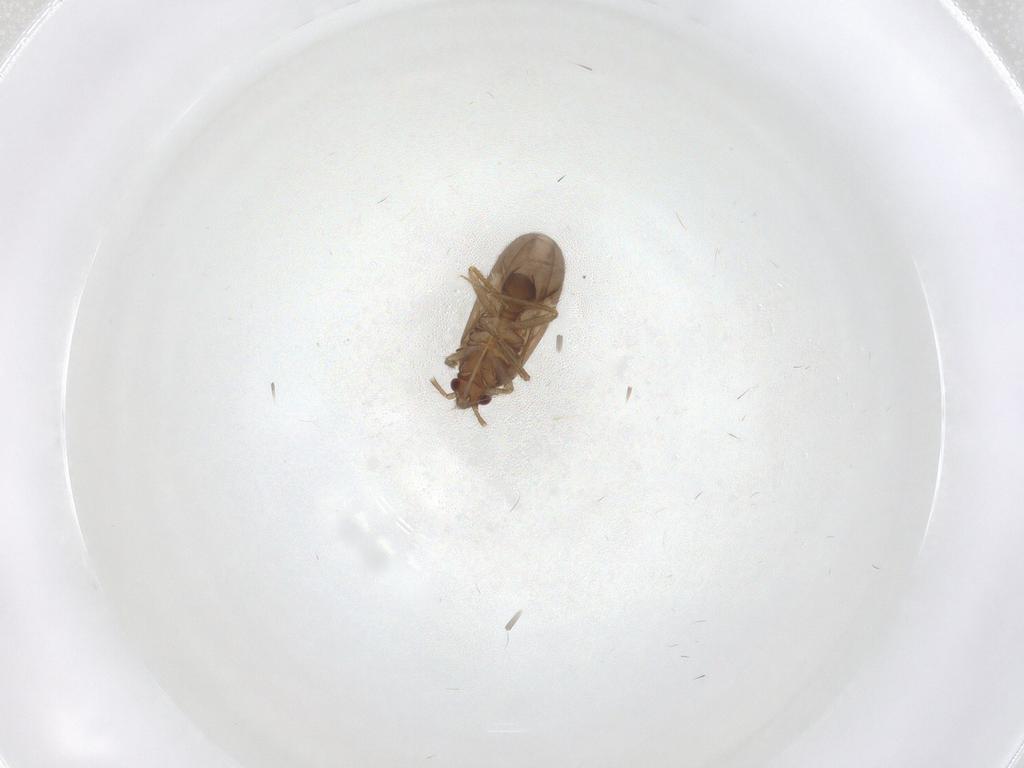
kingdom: Animalia
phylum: Arthropoda
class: Insecta
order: Hemiptera
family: Ceratocombidae
